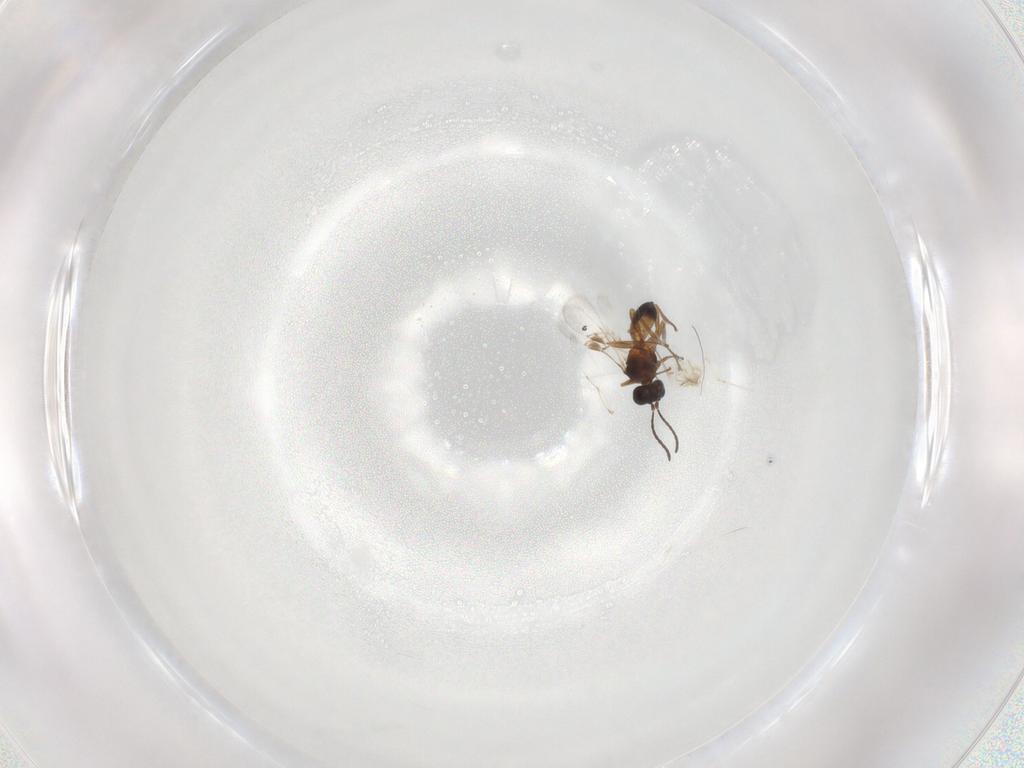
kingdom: Animalia
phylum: Arthropoda
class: Insecta
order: Hymenoptera
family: Braconidae
